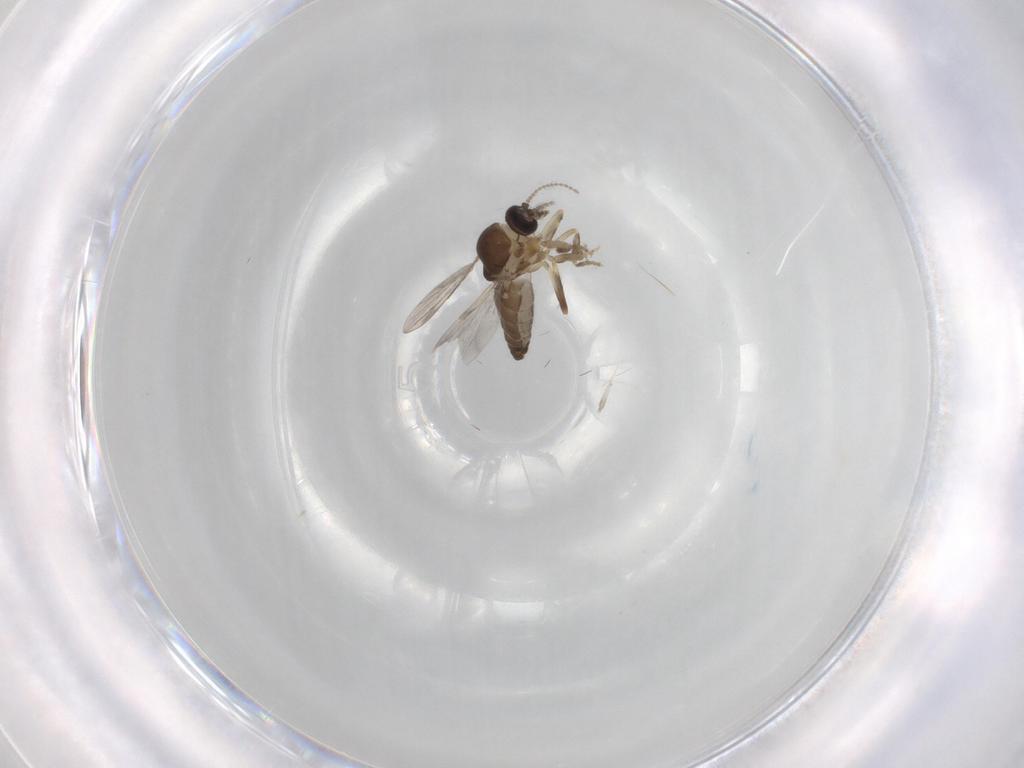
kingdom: Animalia
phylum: Arthropoda
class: Insecta
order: Diptera
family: Ceratopogonidae
